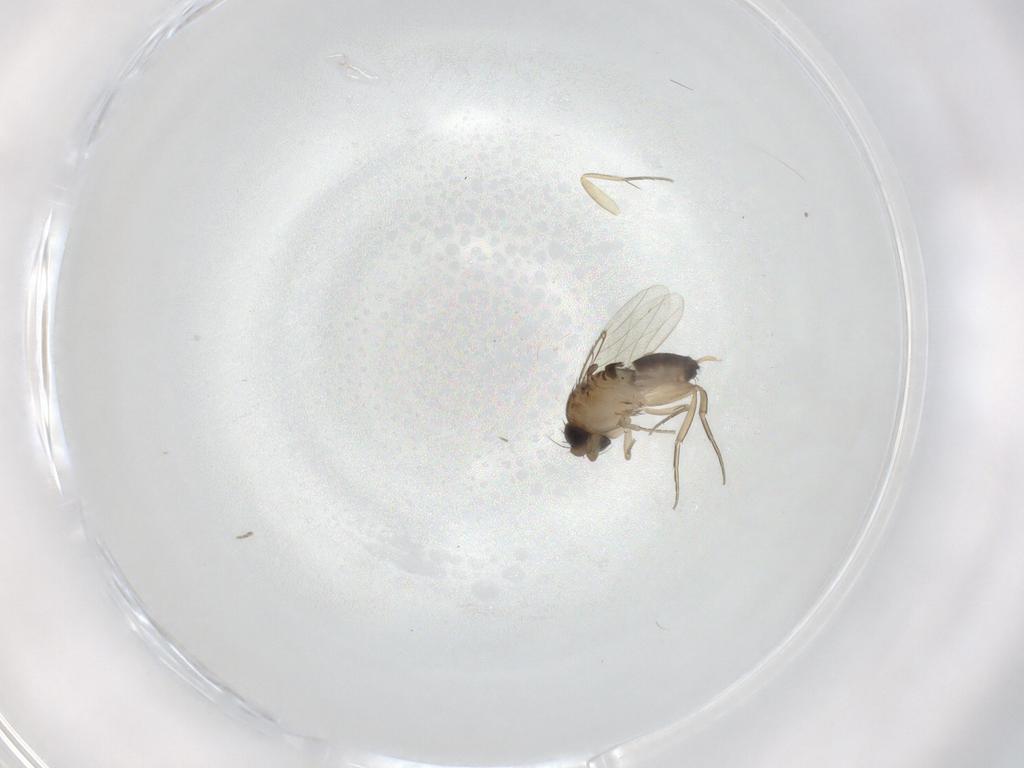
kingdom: Animalia
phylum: Arthropoda
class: Insecta
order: Diptera
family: Phoridae
